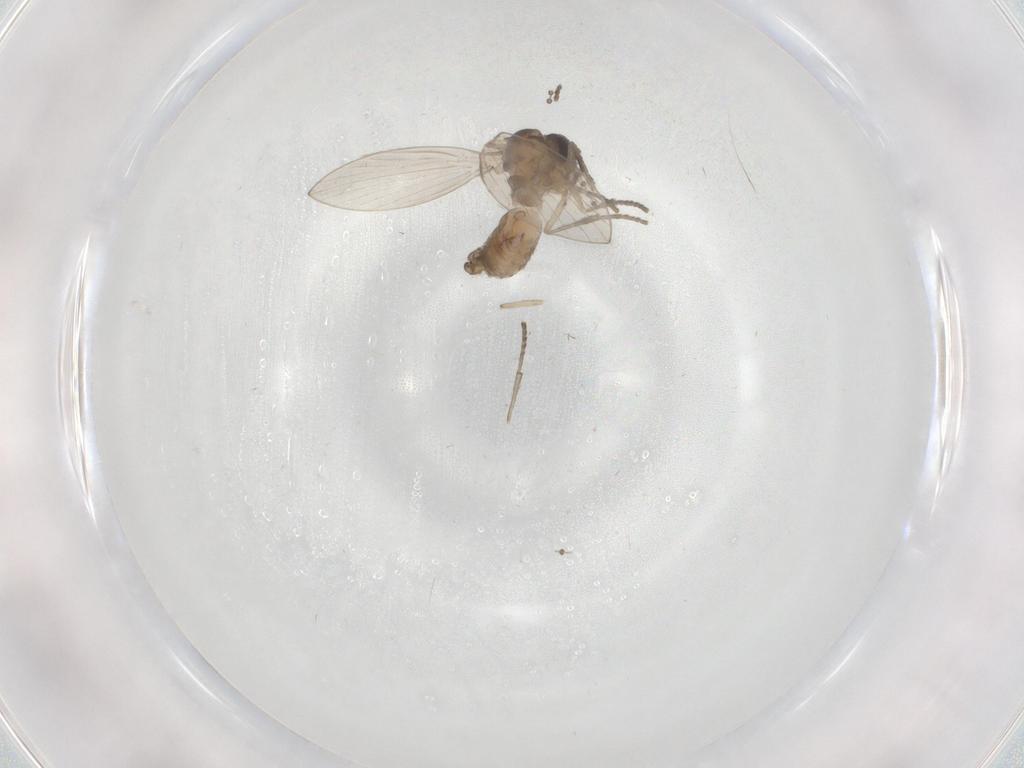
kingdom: Animalia
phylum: Arthropoda
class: Insecta
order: Diptera
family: Psychodidae
